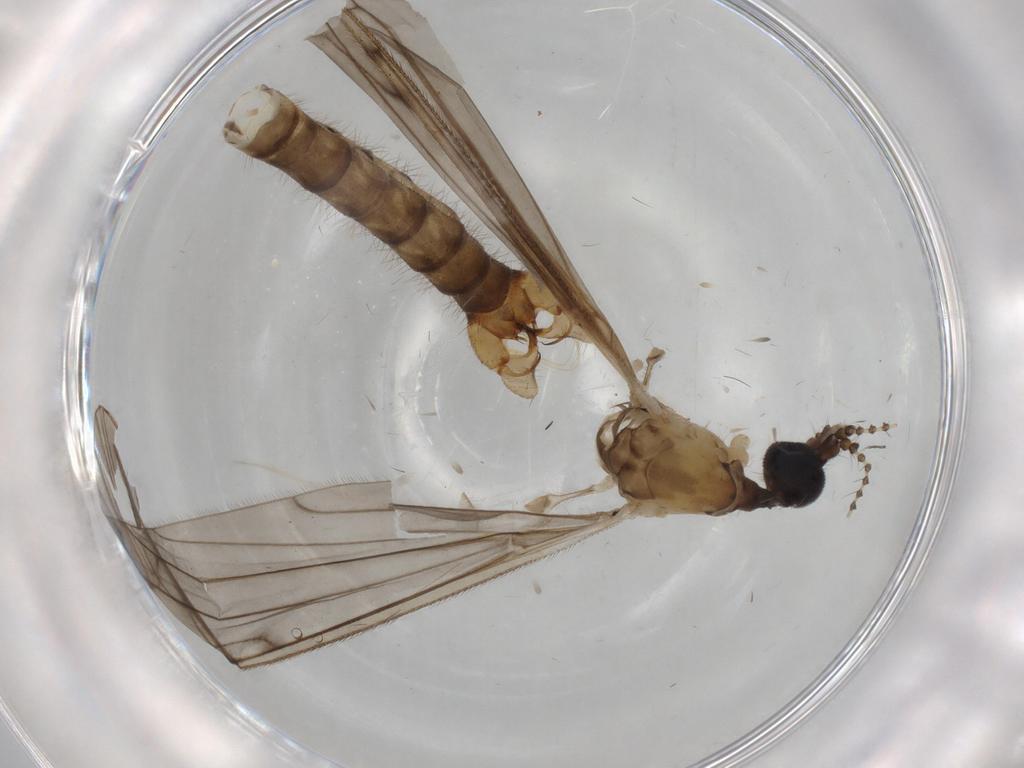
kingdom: Animalia
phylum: Arthropoda
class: Insecta
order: Diptera
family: Limoniidae
